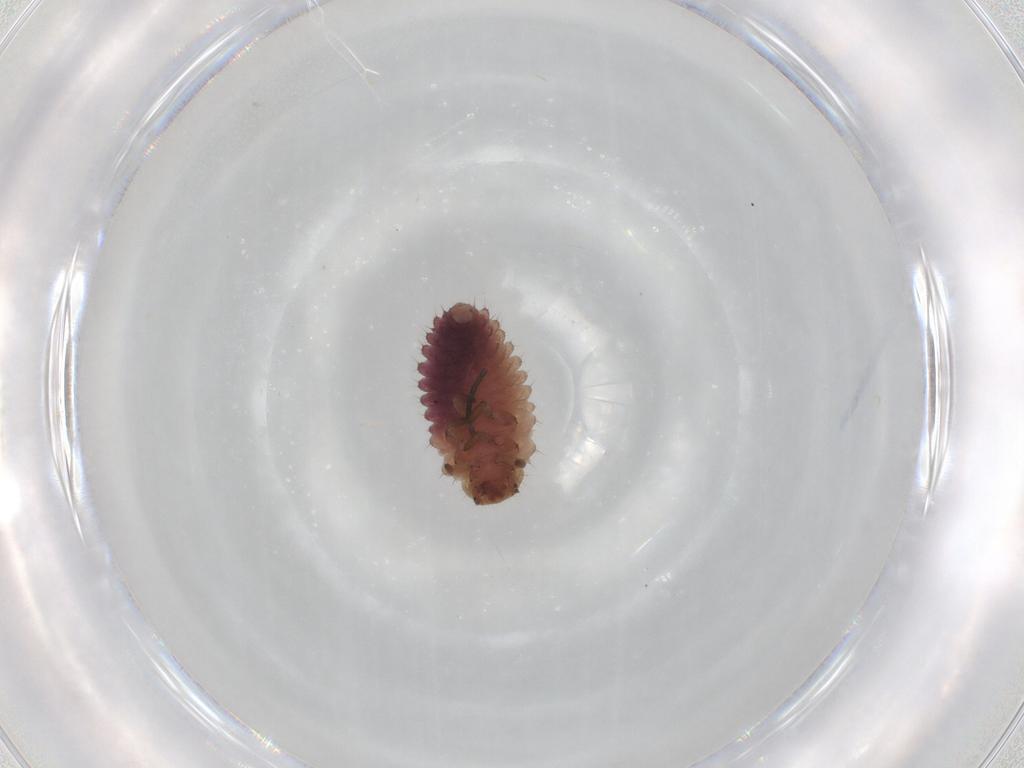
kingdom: Animalia
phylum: Arthropoda
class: Insecta
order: Coleoptera
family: Coccinellidae
